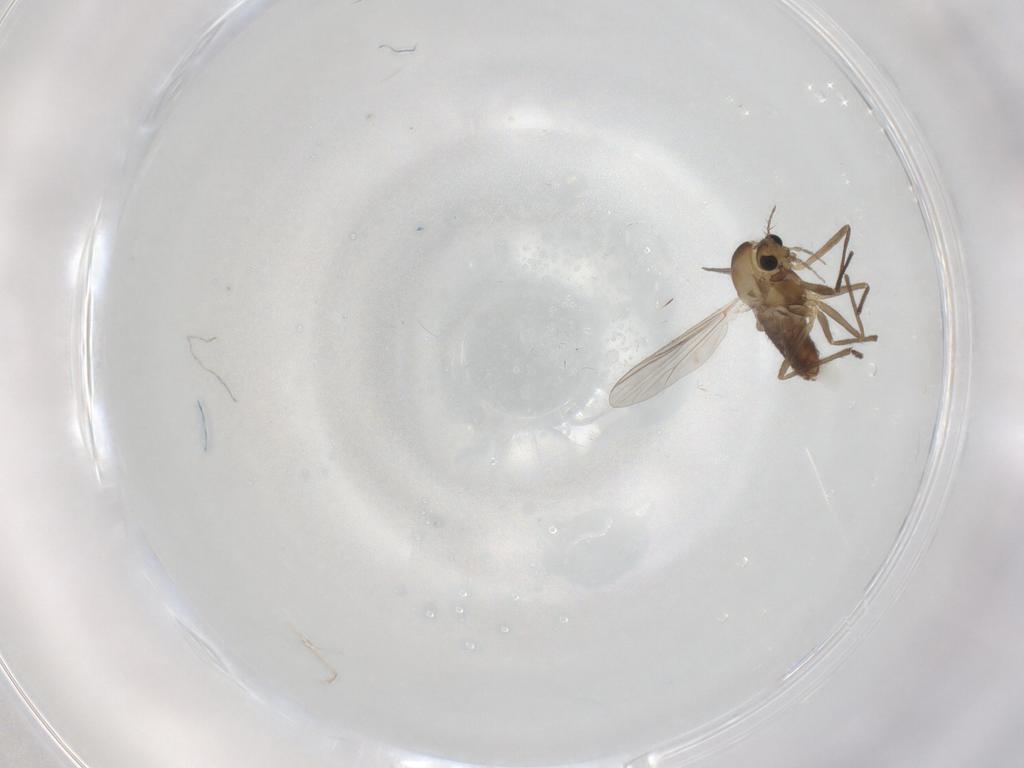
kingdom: Animalia
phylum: Arthropoda
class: Insecta
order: Diptera
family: Chironomidae
